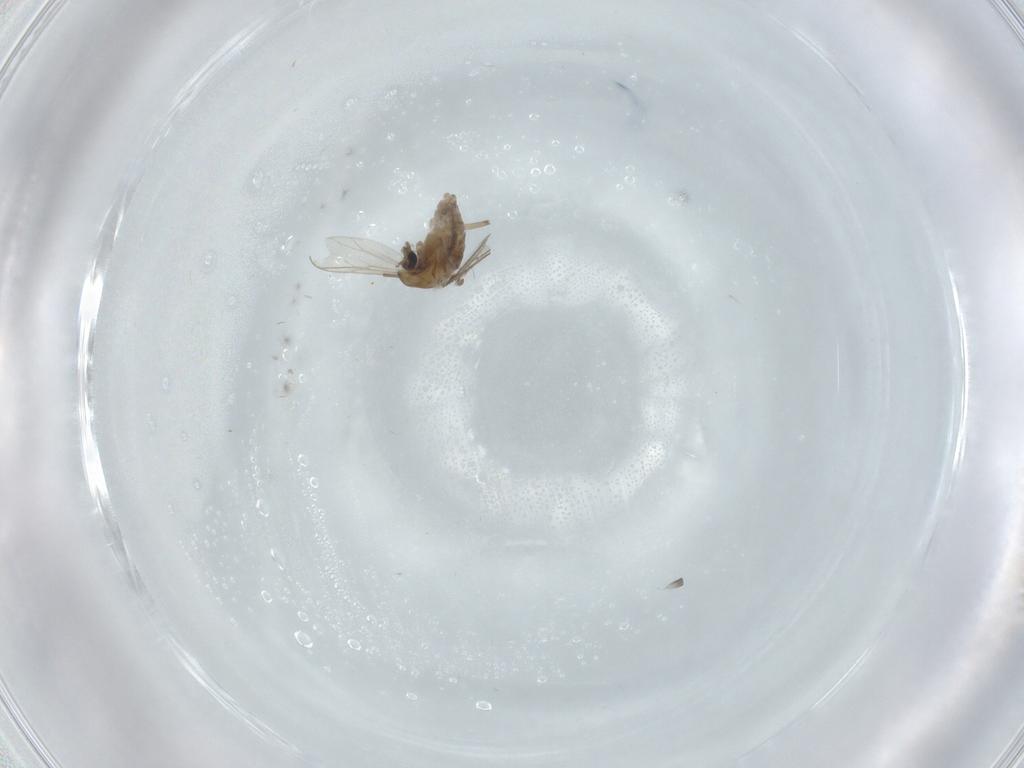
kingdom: Animalia
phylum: Arthropoda
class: Insecta
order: Diptera
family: Chironomidae
